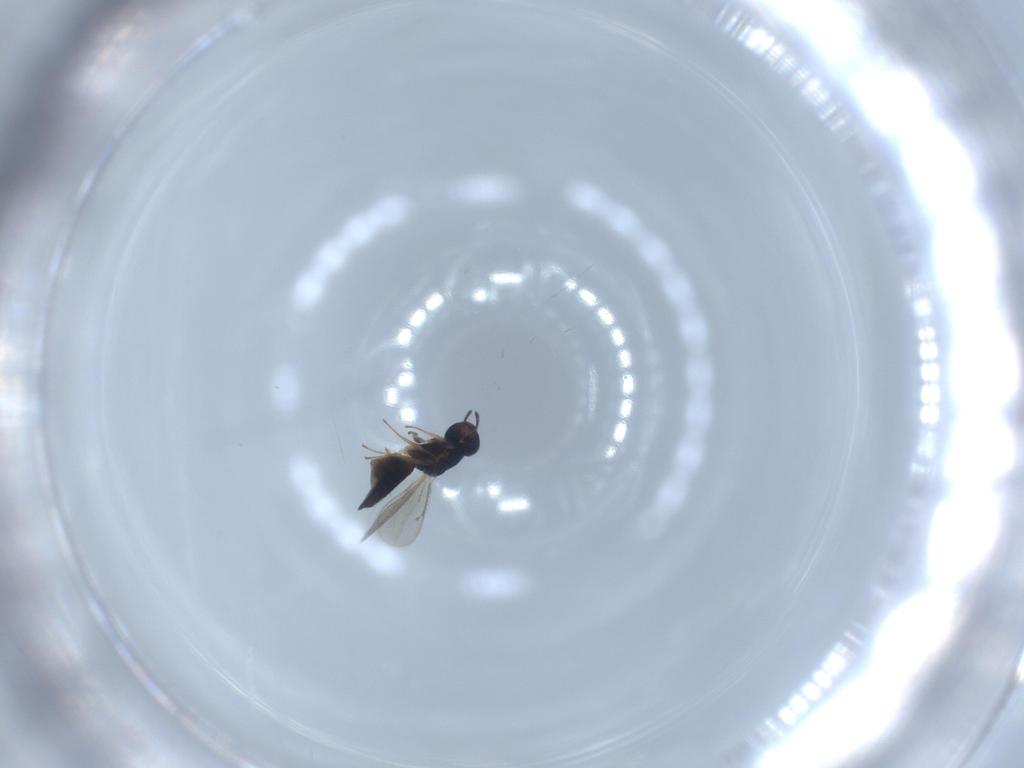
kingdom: Animalia
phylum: Arthropoda
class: Insecta
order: Hymenoptera
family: Eulophidae
